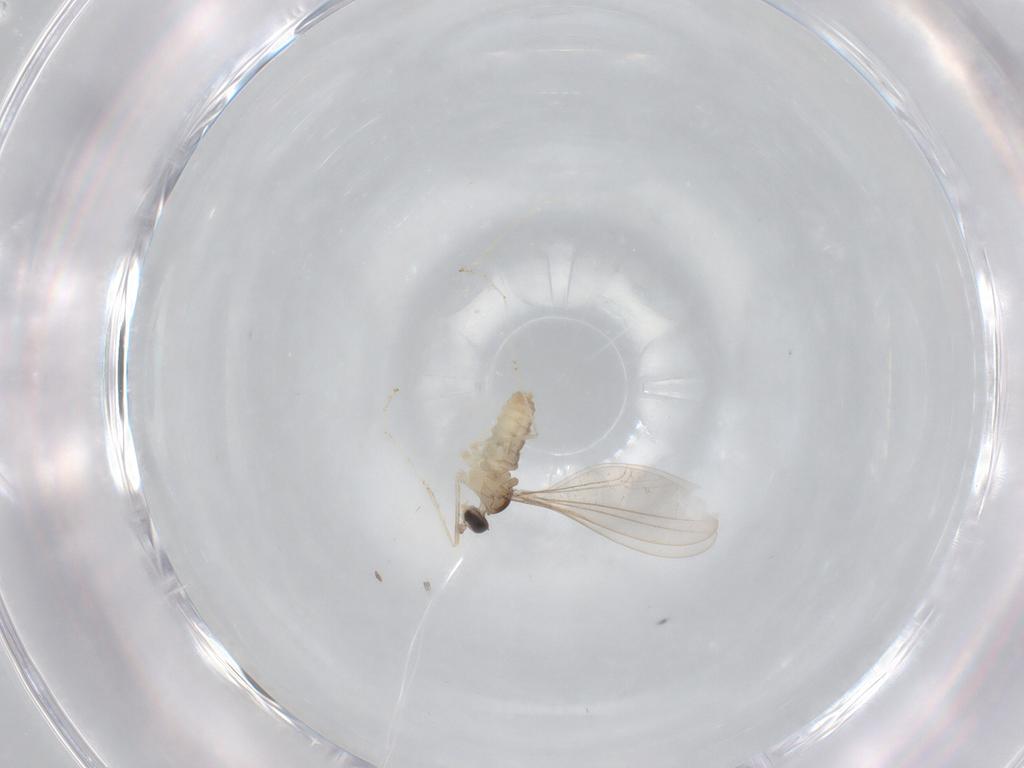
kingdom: Animalia
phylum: Arthropoda
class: Insecta
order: Diptera
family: Cecidomyiidae
